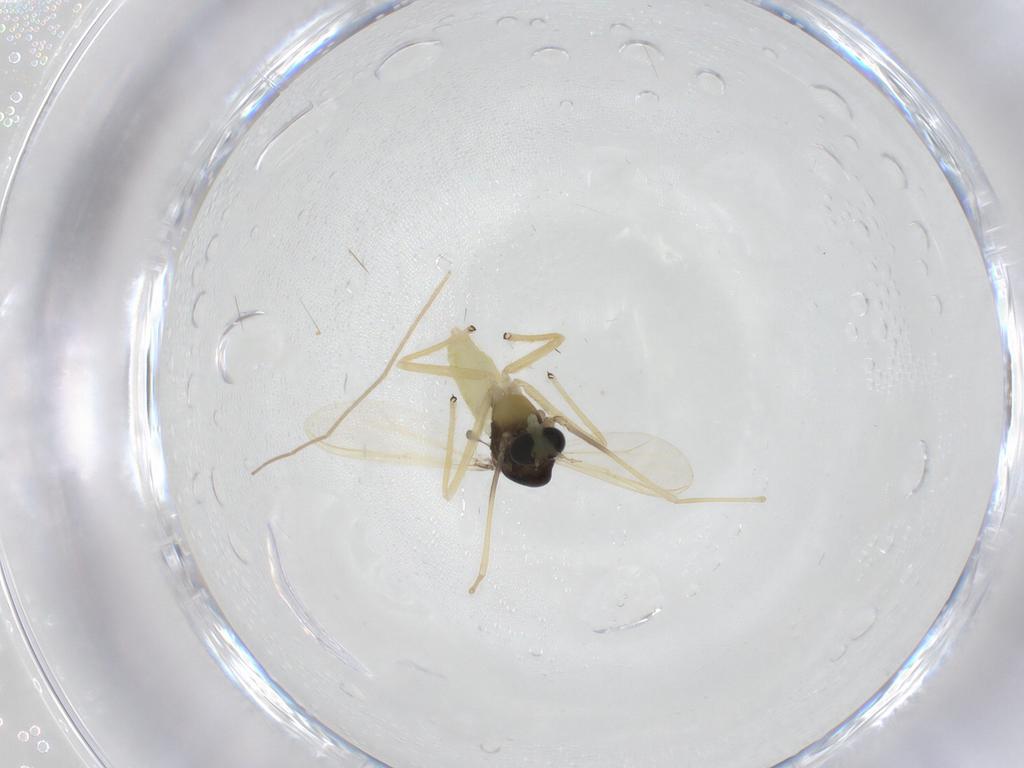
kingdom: Animalia
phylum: Arthropoda
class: Insecta
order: Diptera
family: Chironomidae
